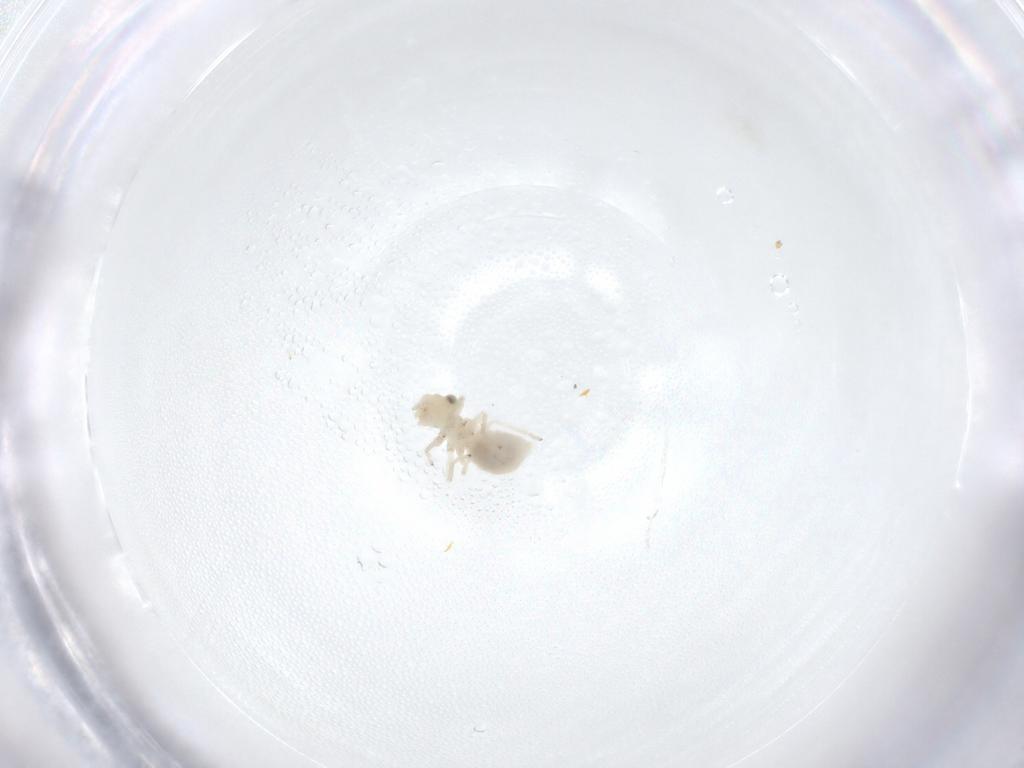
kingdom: Animalia
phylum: Arthropoda
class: Insecta
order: Psocodea
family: Caeciliusidae
